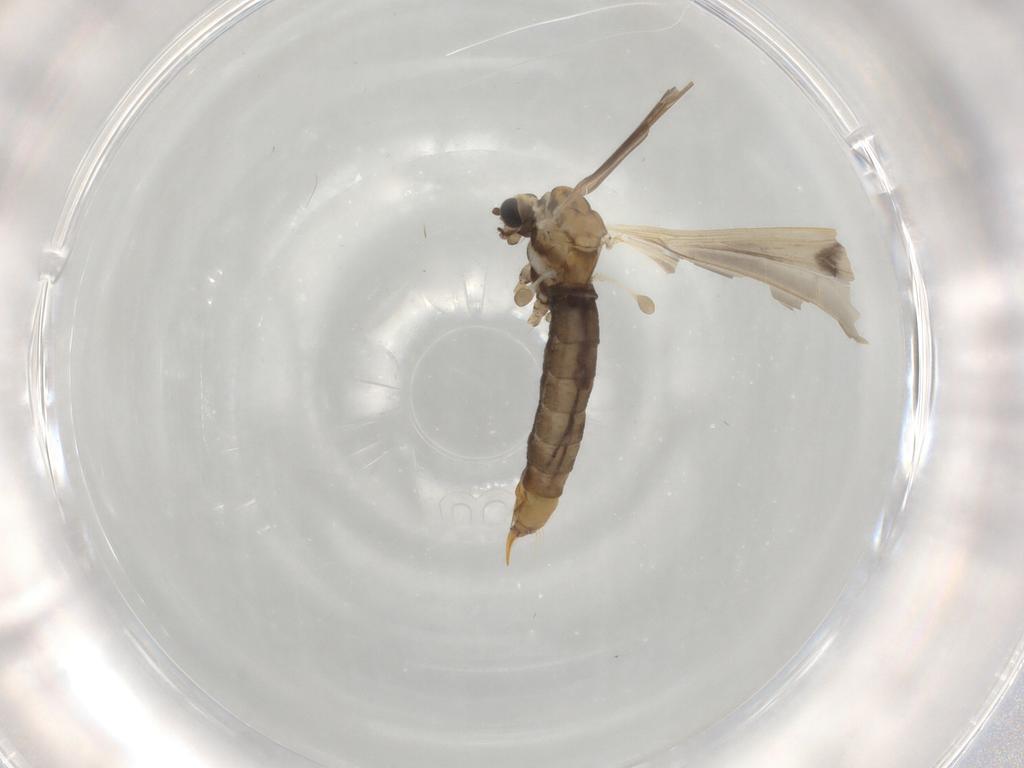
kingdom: Animalia
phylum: Arthropoda
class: Insecta
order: Diptera
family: Limoniidae
